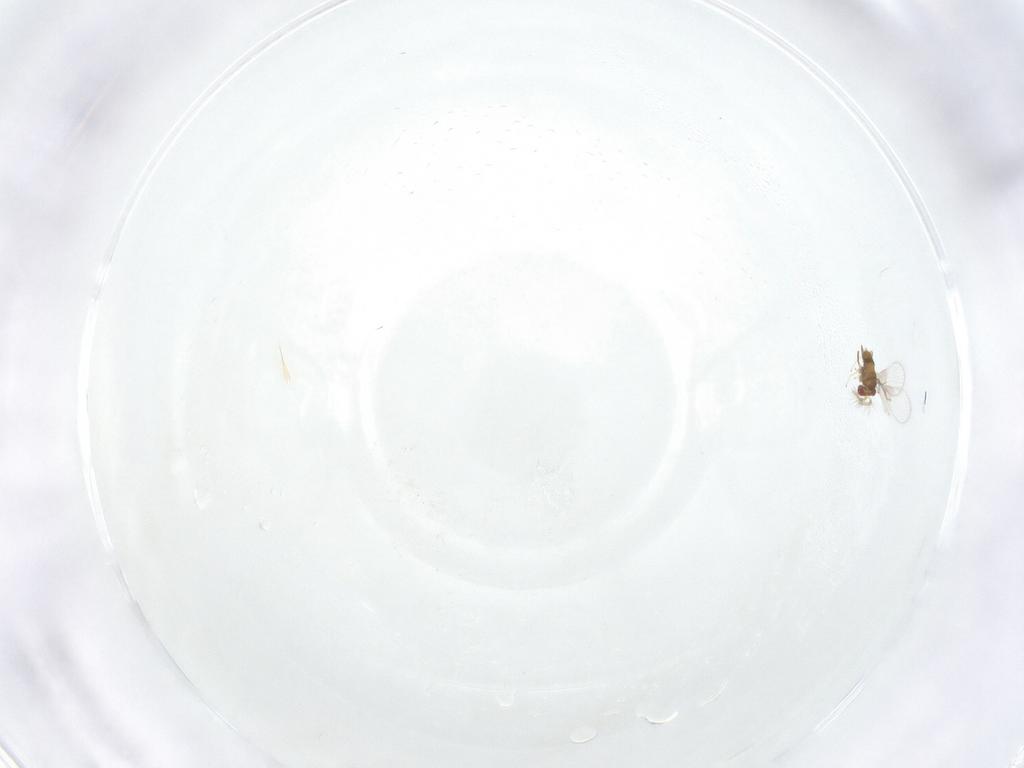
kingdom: Animalia
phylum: Arthropoda
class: Insecta
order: Hymenoptera
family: Trichogrammatidae
